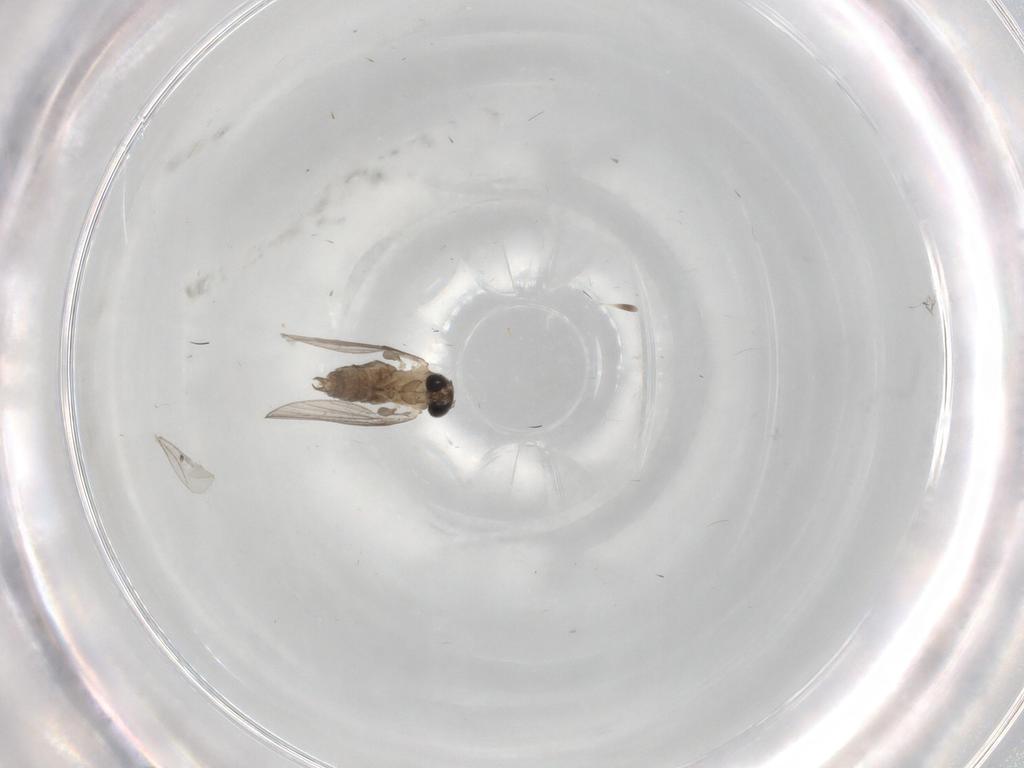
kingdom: Animalia
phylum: Arthropoda
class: Insecta
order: Diptera
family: Psychodidae
